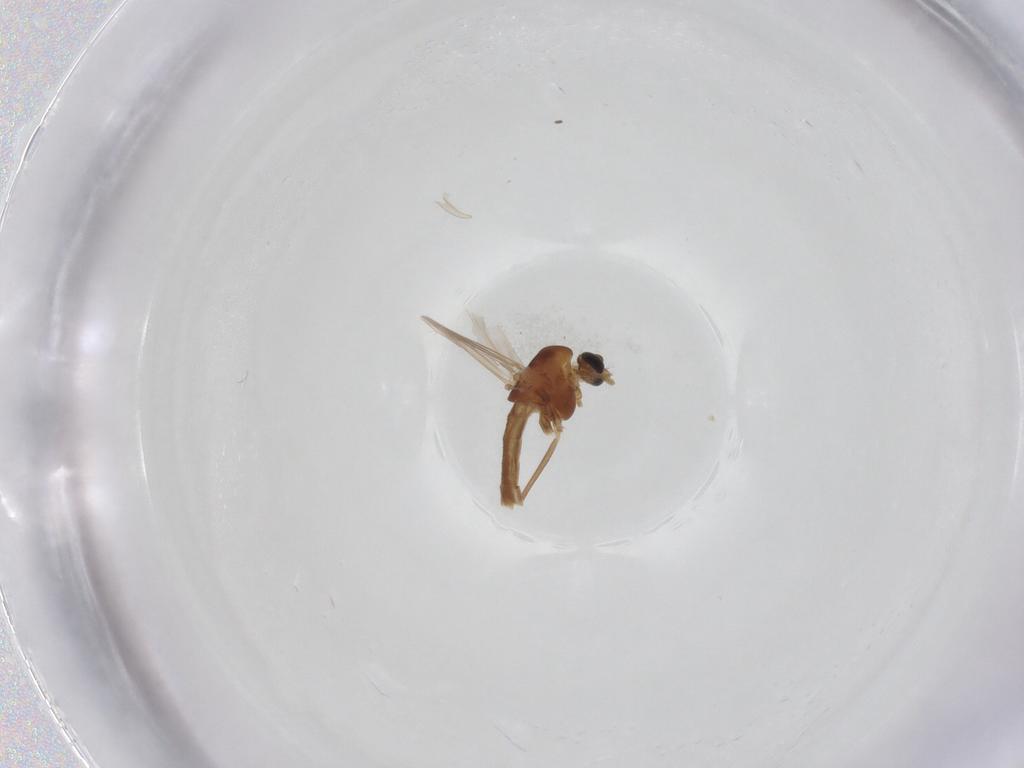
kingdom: Animalia
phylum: Arthropoda
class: Insecta
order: Diptera
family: Chironomidae
